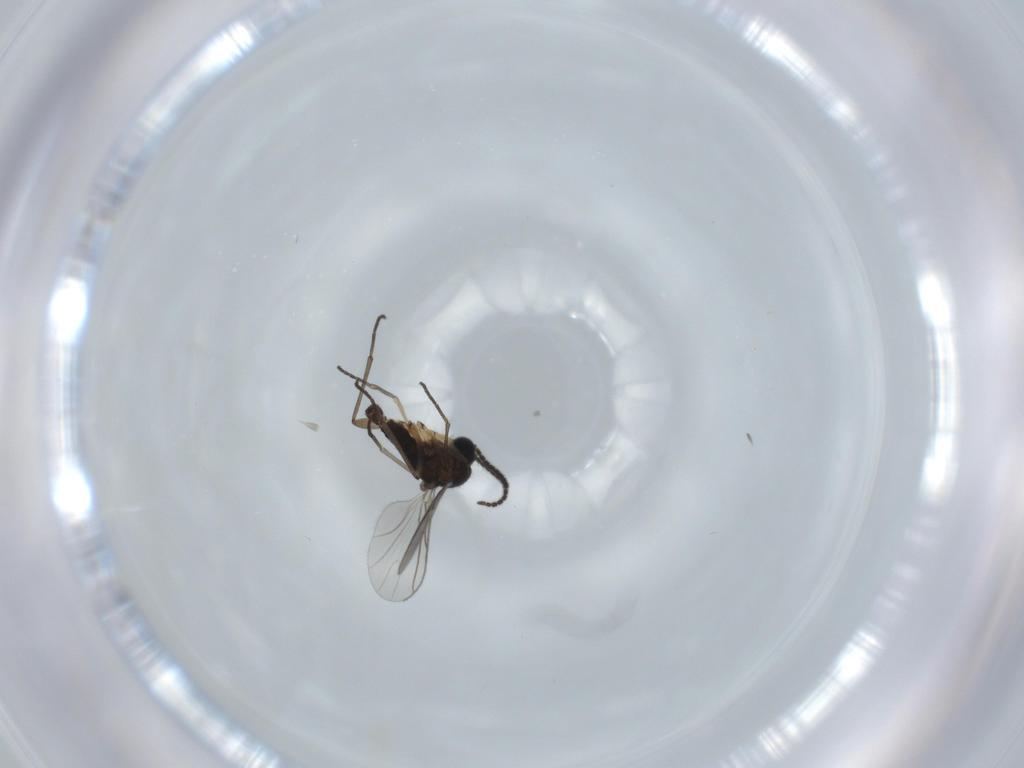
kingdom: Animalia
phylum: Arthropoda
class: Insecta
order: Diptera
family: Sciaridae
